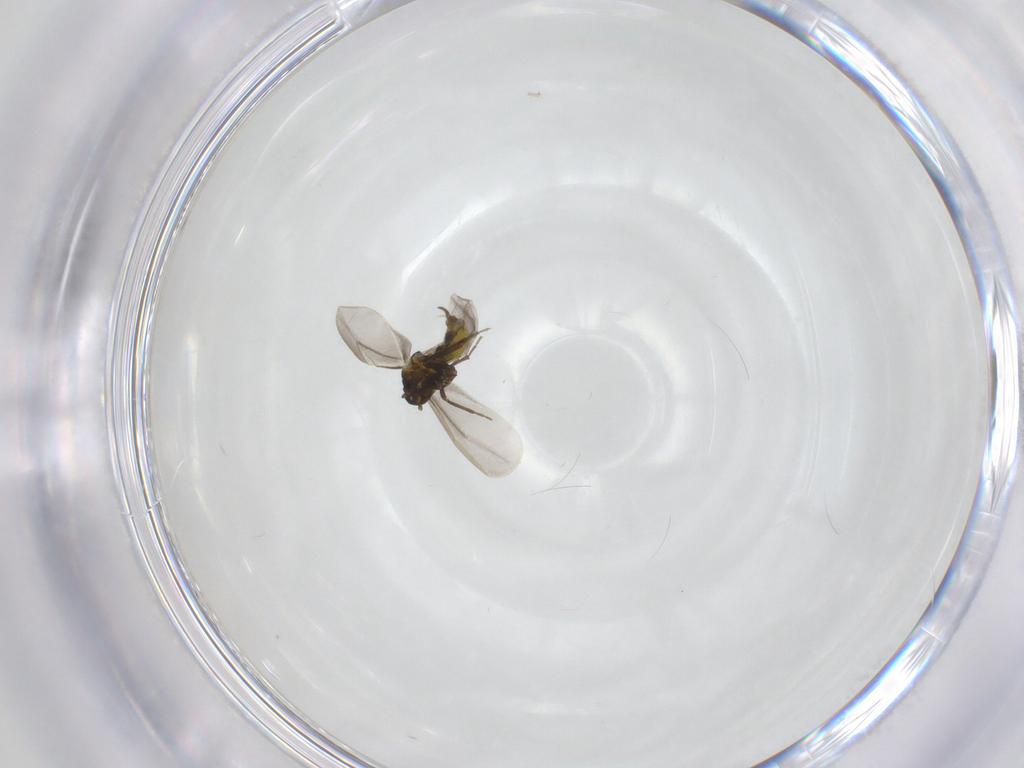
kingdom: Animalia
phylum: Arthropoda
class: Insecta
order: Hemiptera
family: Aleyrodidae
